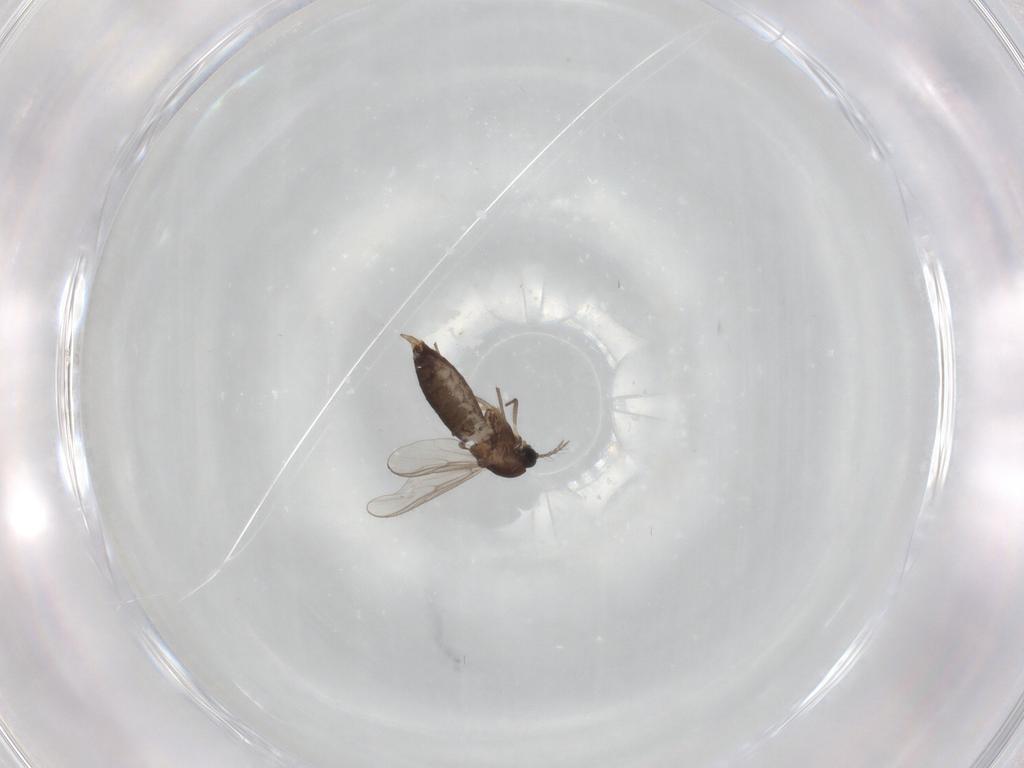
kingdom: Animalia
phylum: Arthropoda
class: Insecta
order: Diptera
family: Chironomidae
